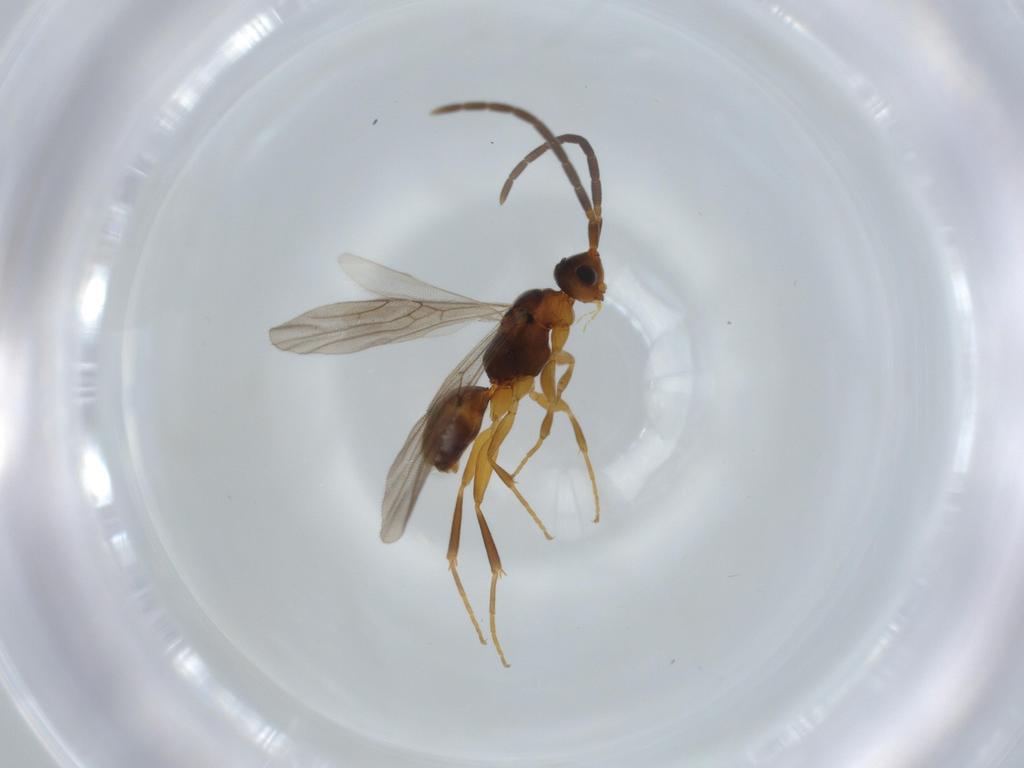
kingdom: Animalia
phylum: Arthropoda
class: Insecta
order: Hymenoptera
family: Scelionidae
